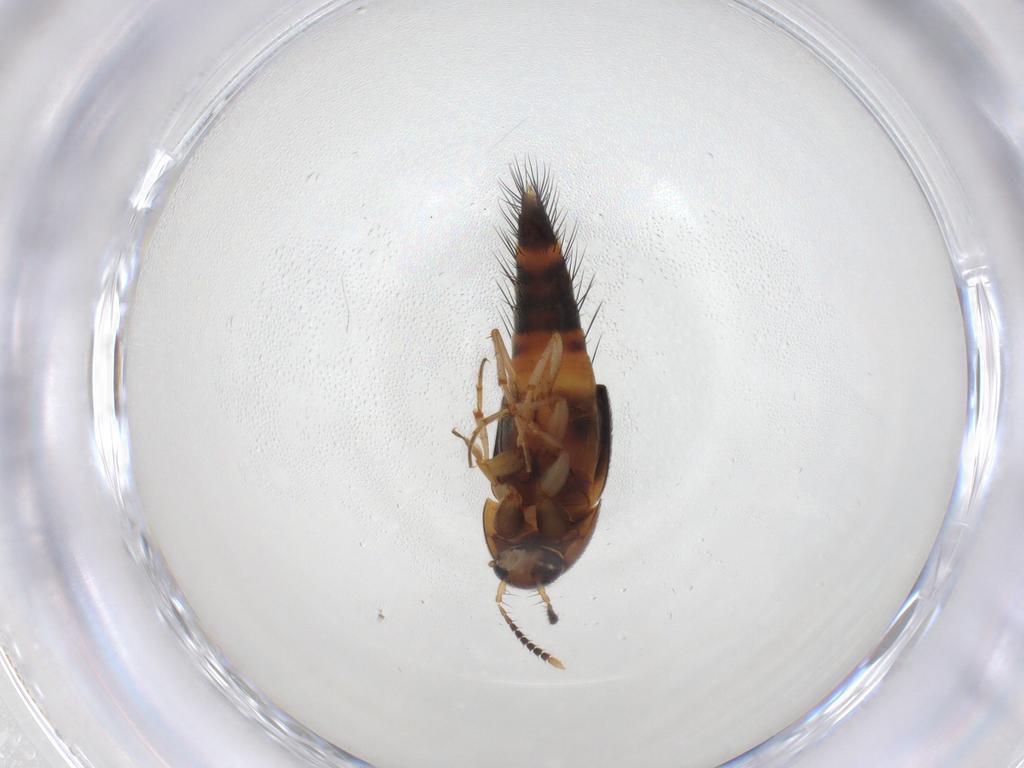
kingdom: Animalia
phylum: Arthropoda
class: Insecta
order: Coleoptera
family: Staphylinidae
